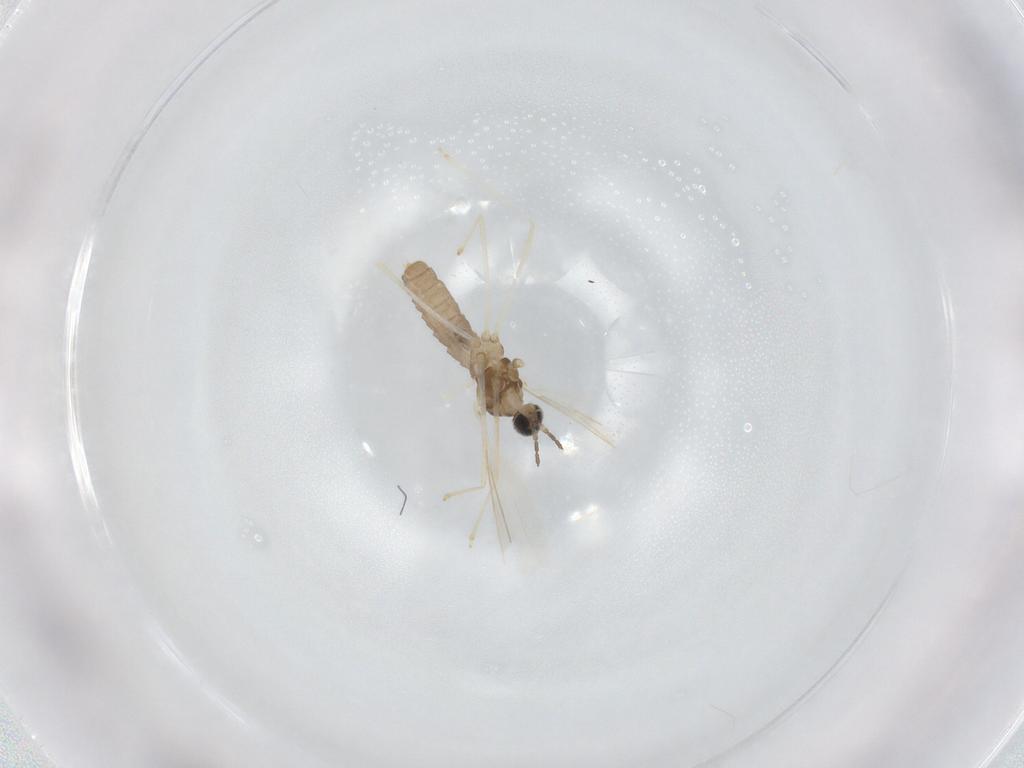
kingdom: Animalia
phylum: Arthropoda
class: Insecta
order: Diptera
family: Cecidomyiidae
